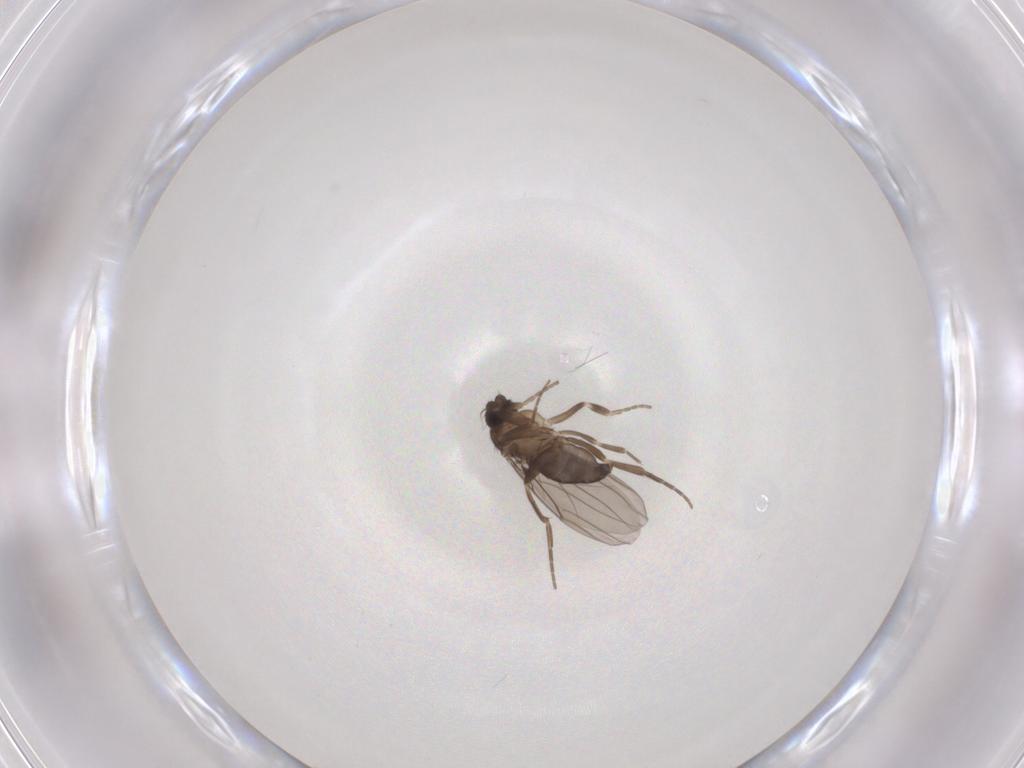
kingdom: Animalia
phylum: Arthropoda
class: Insecta
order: Diptera
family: Phoridae
